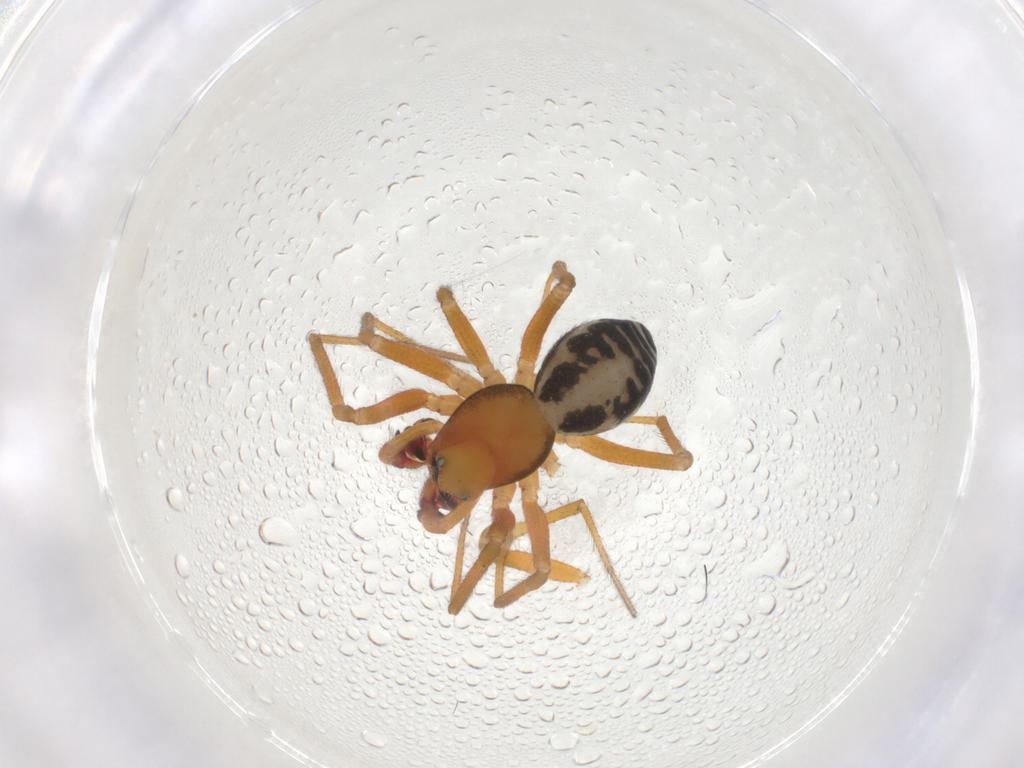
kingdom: Animalia
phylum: Arthropoda
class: Arachnida
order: Araneae
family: Linyphiidae
